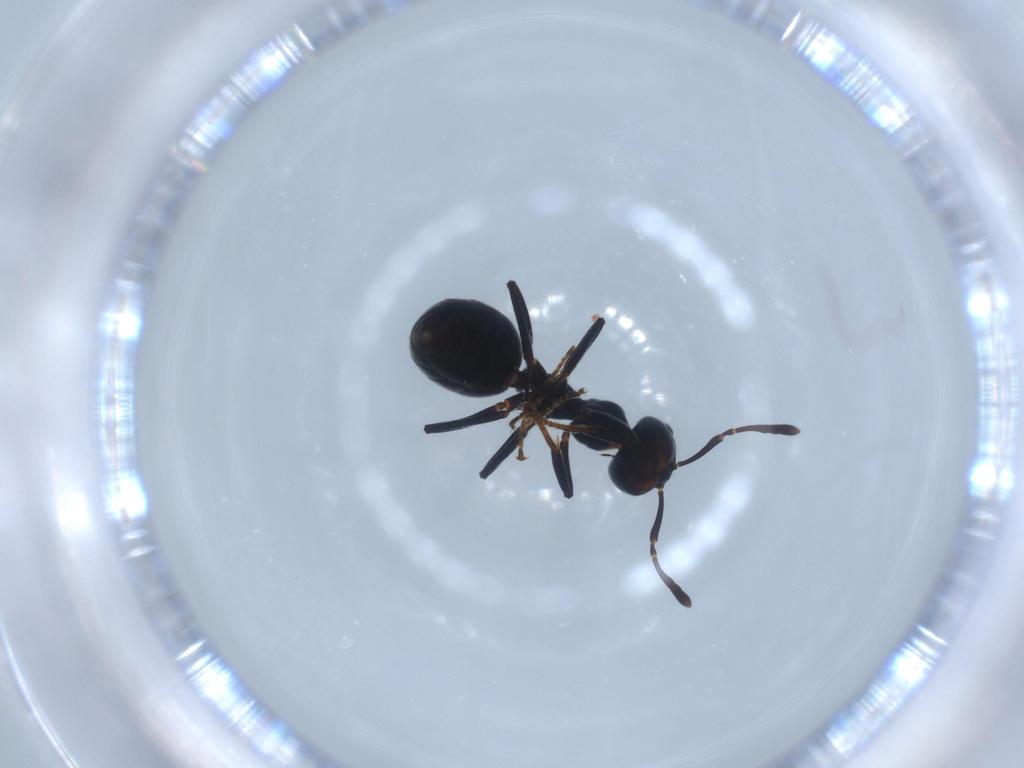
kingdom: Animalia
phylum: Arthropoda
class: Insecta
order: Hymenoptera
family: Formicidae
